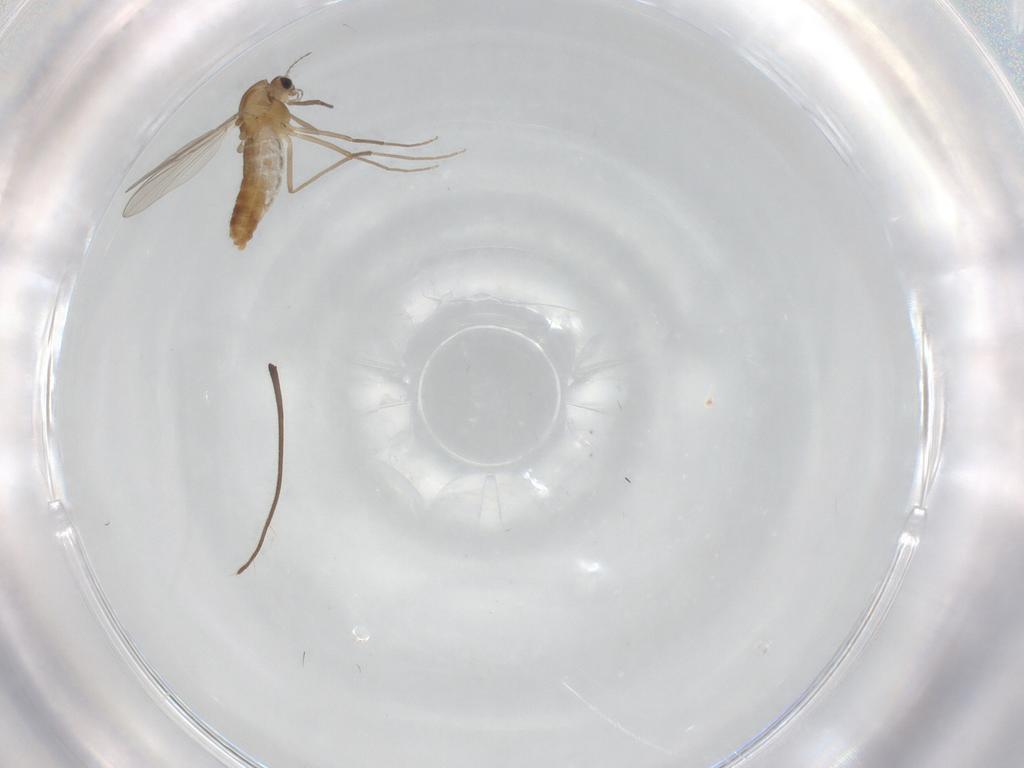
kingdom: Animalia
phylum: Arthropoda
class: Insecta
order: Diptera
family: Chironomidae
